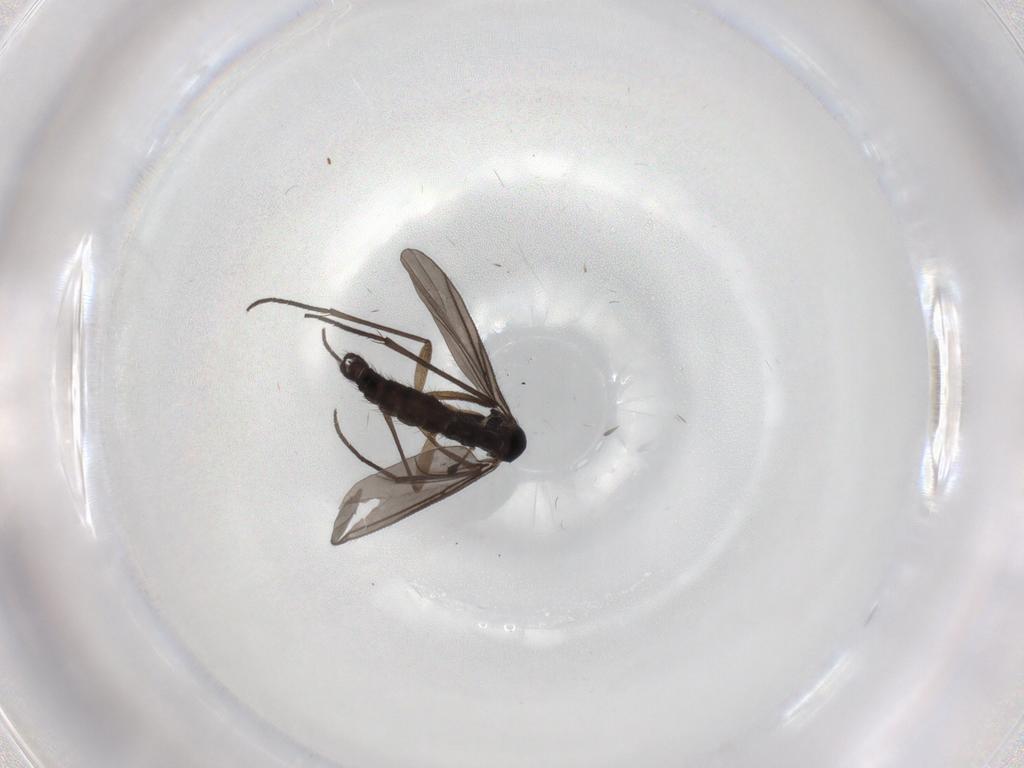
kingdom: Animalia
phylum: Arthropoda
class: Insecta
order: Diptera
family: Sciaridae
